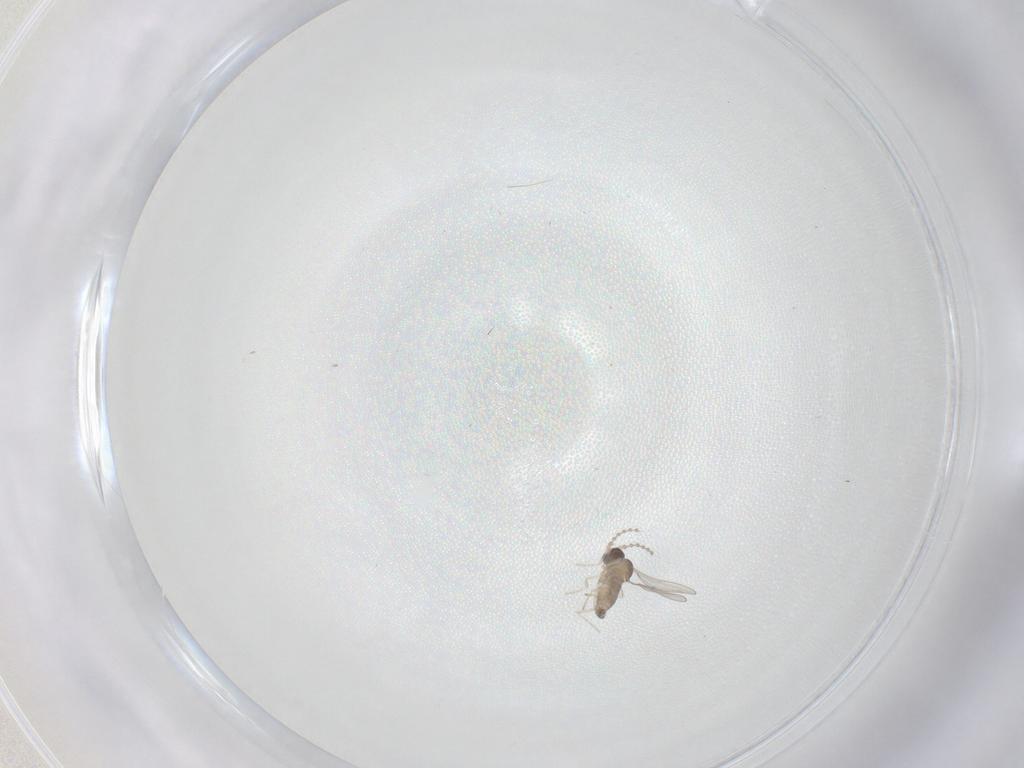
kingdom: Animalia
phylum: Arthropoda
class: Insecta
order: Diptera
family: Cecidomyiidae
